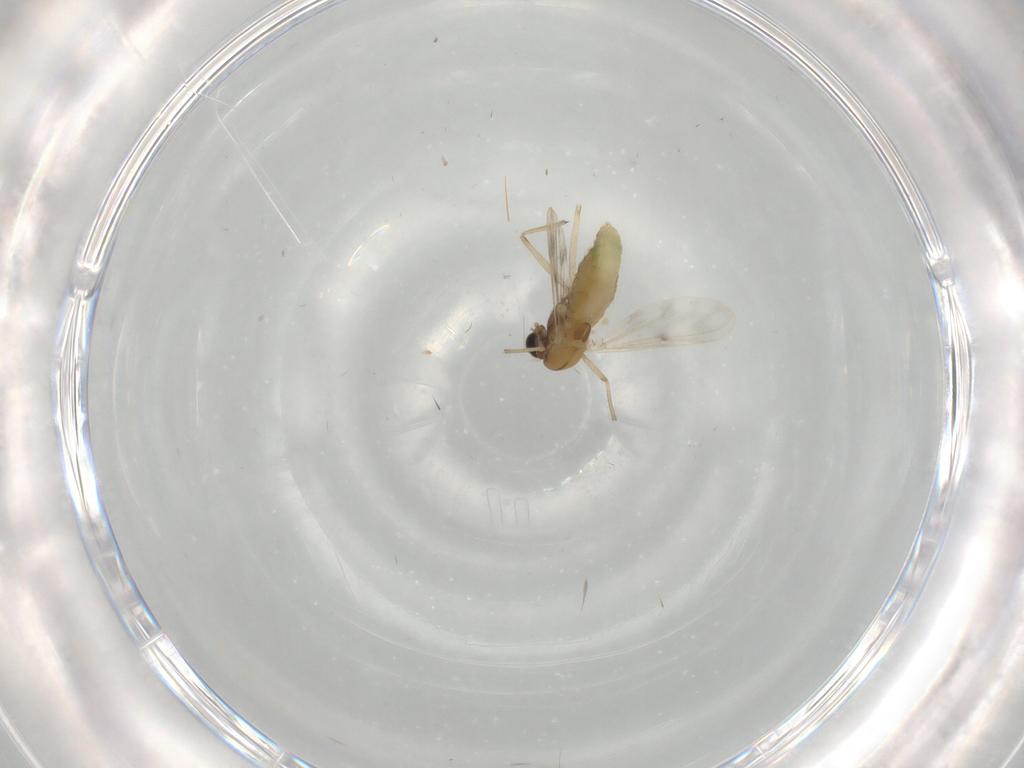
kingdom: Animalia
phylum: Arthropoda
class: Insecta
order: Diptera
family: Chironomidae
